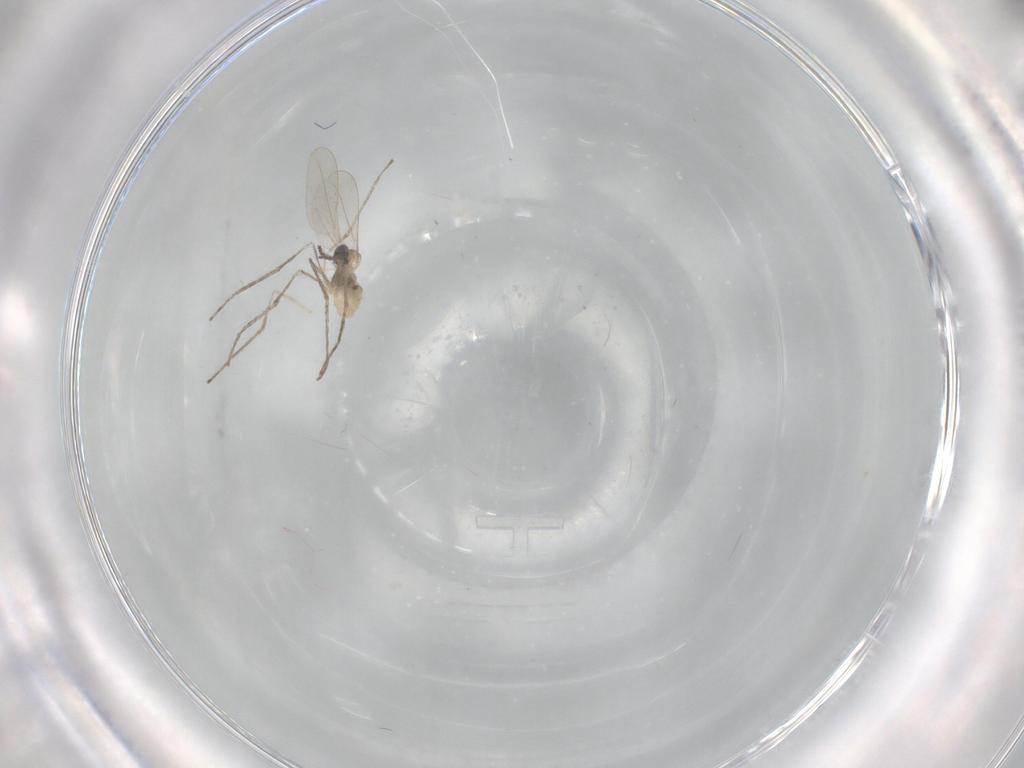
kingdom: Animalia
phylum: Arthropoda
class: Insecta
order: Diptera
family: Cecidomyiidae
